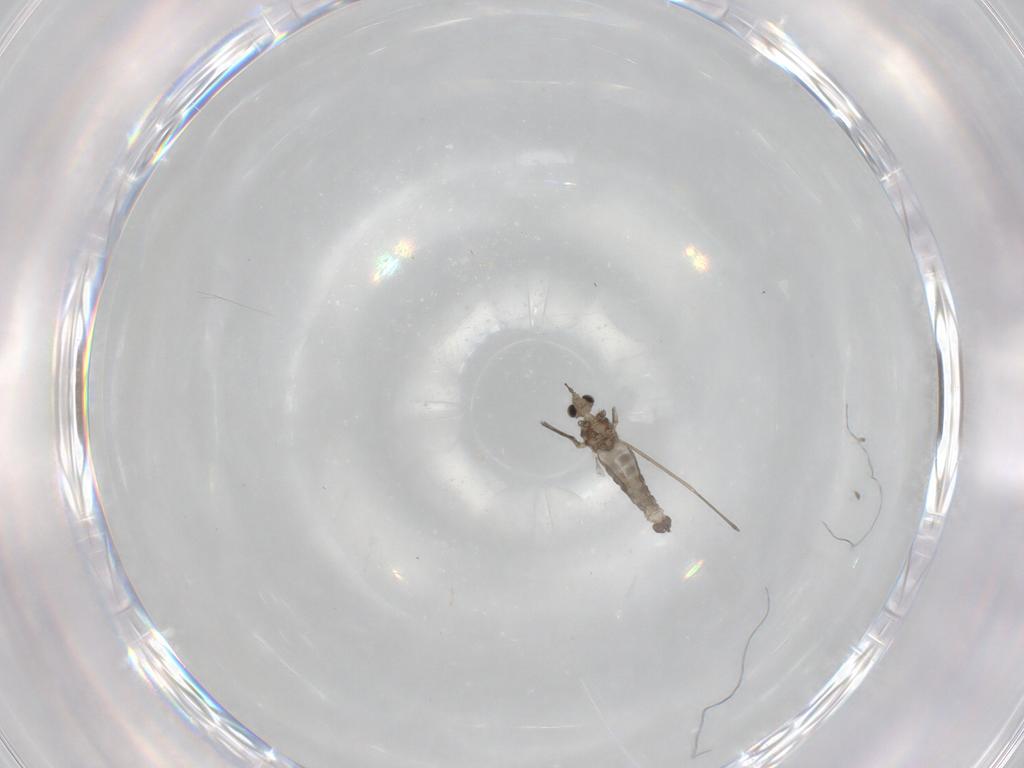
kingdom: Animalia
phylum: Arthropoda
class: Insecta
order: Diptera
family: Cecidomyiidae
